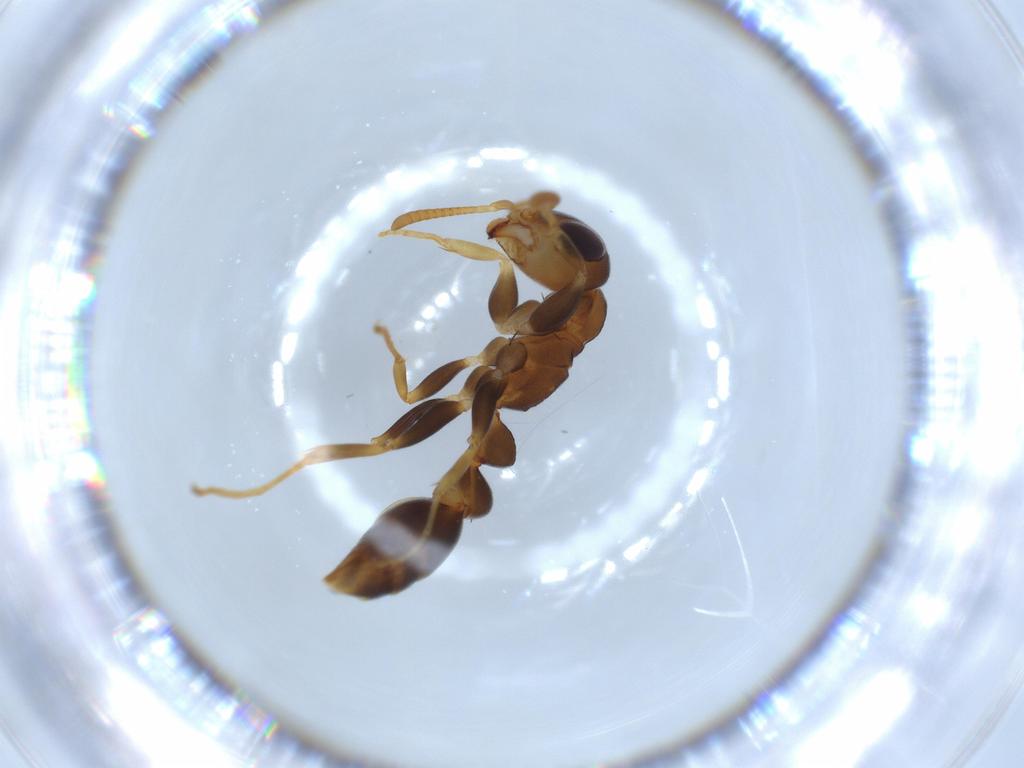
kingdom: Animalia
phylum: Arthropoda
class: Insecta
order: Hymenoptera
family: Formicidae
